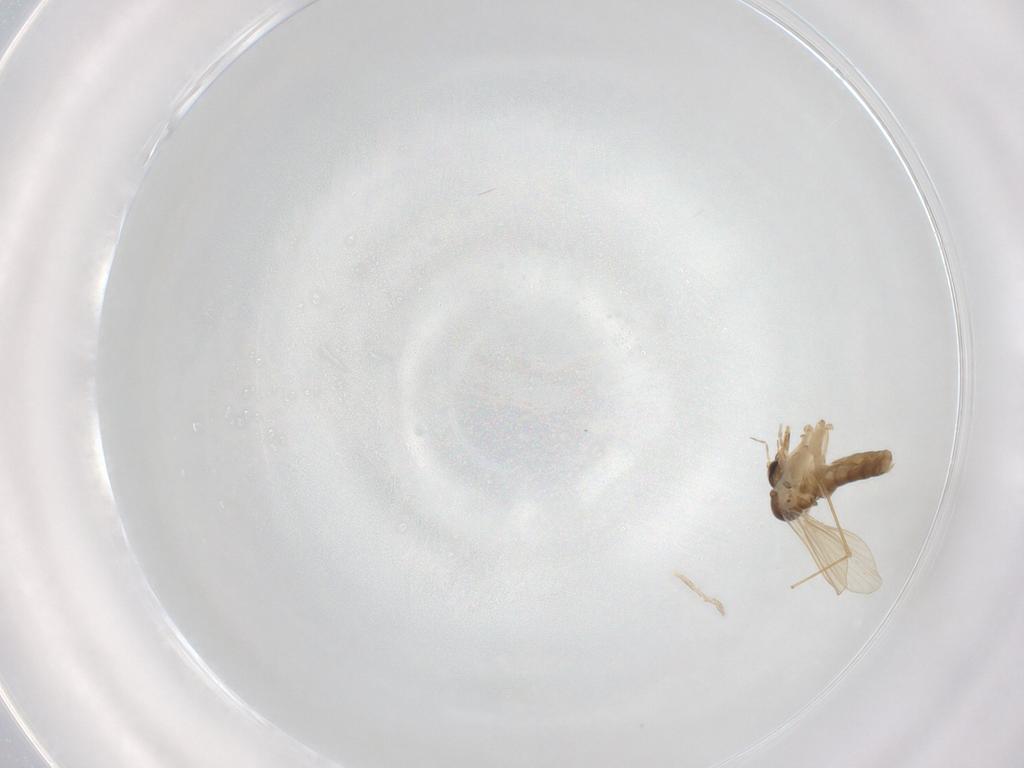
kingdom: Animalia
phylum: Arthropoda
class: Insecta
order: Diptera
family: Psychodidae
